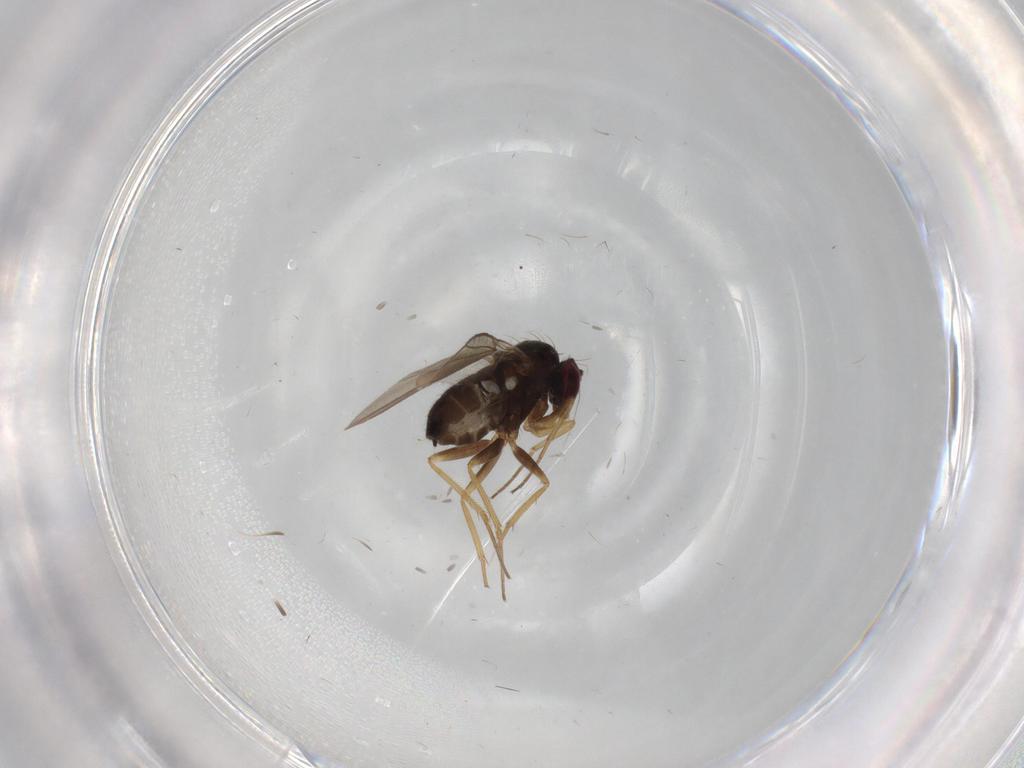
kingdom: Animalia
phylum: Arthropoda
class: Insecta
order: Diptera
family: Dolichopodidae
